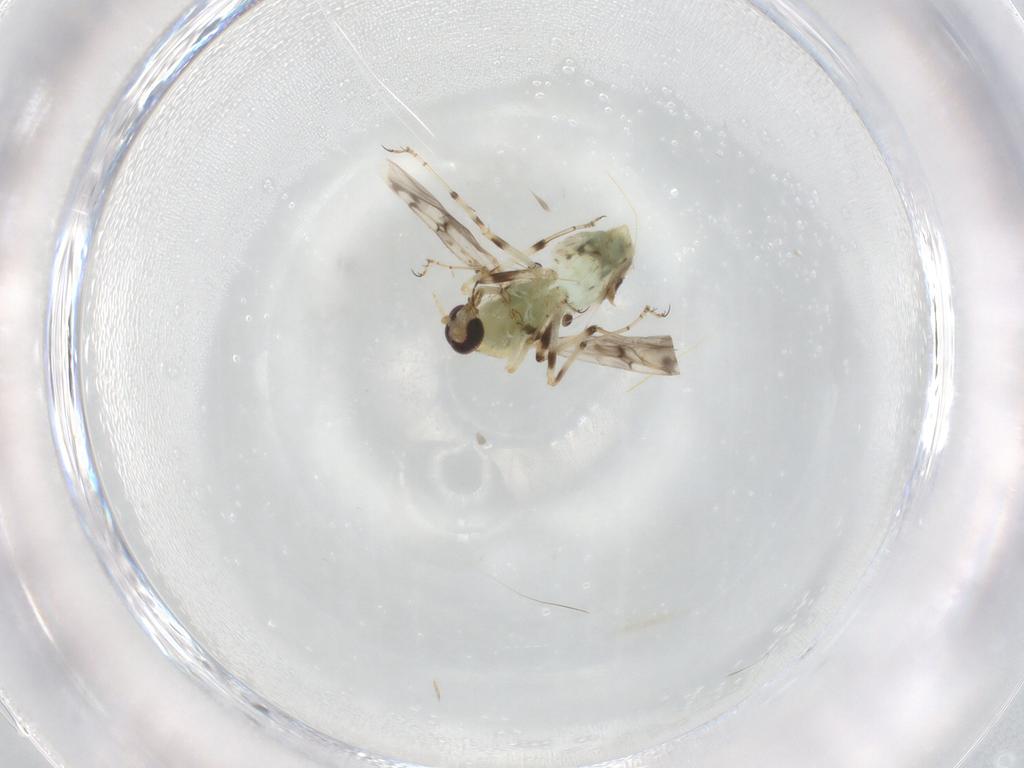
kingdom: Animalia
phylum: Arthropoda
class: Insecta
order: Diptera
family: Ceratopogonidae
